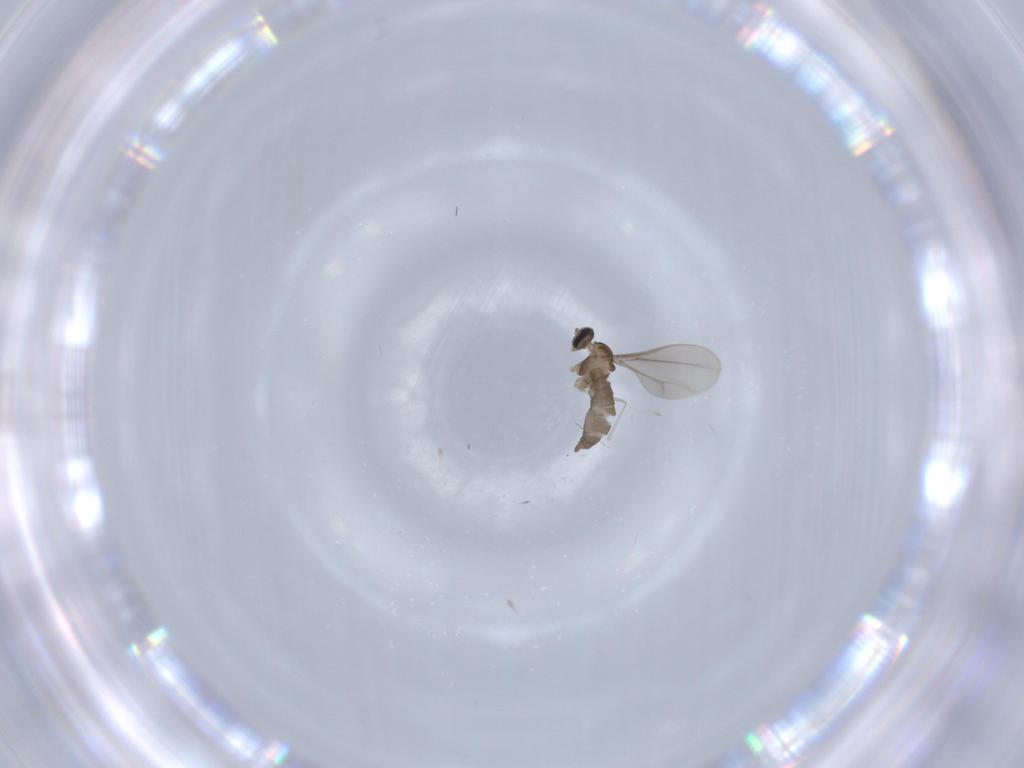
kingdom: Animalia
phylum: Arthropoda
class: Insecta
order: Diptera
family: Cecidomyiidae
